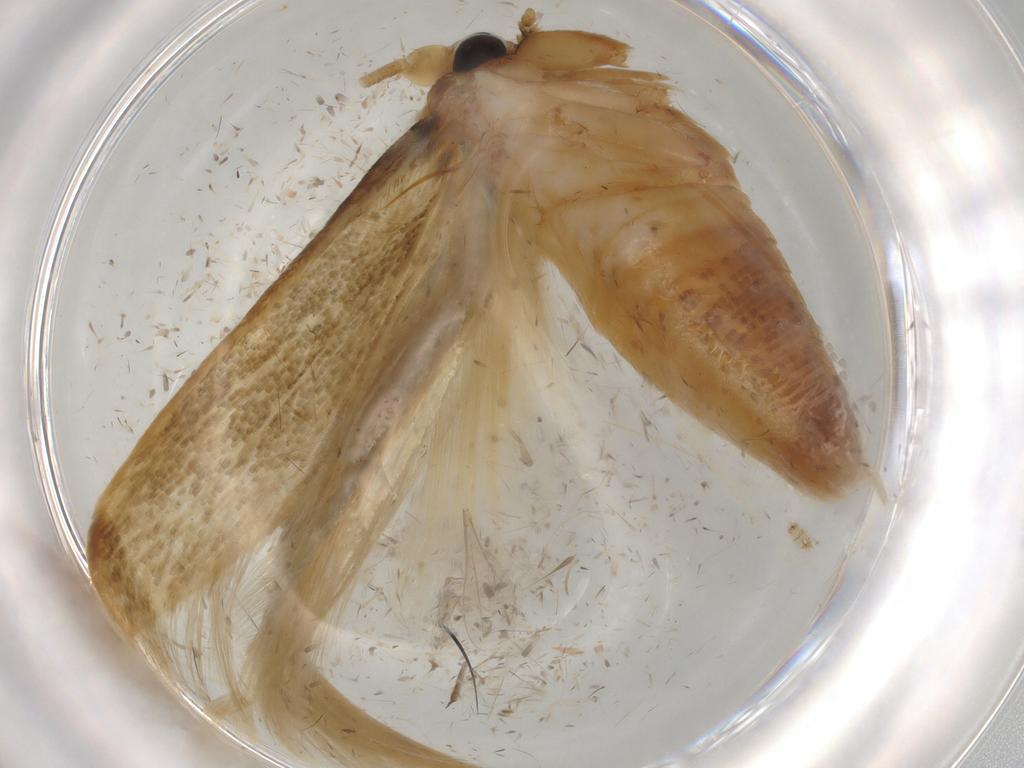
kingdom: Animalia
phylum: Arthropoda
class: Insecta
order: Lepidoptera
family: Tineidae
